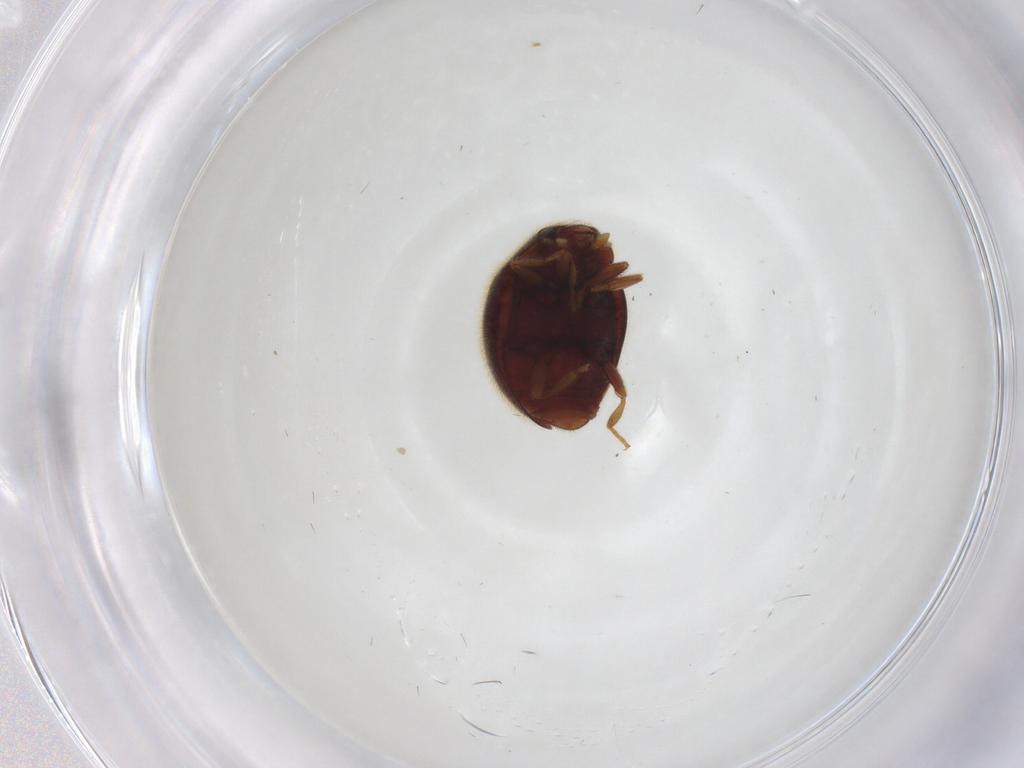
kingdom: Animalia
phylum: Arthropoda
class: Insecta
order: Coleoptera
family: Coccinellidae
